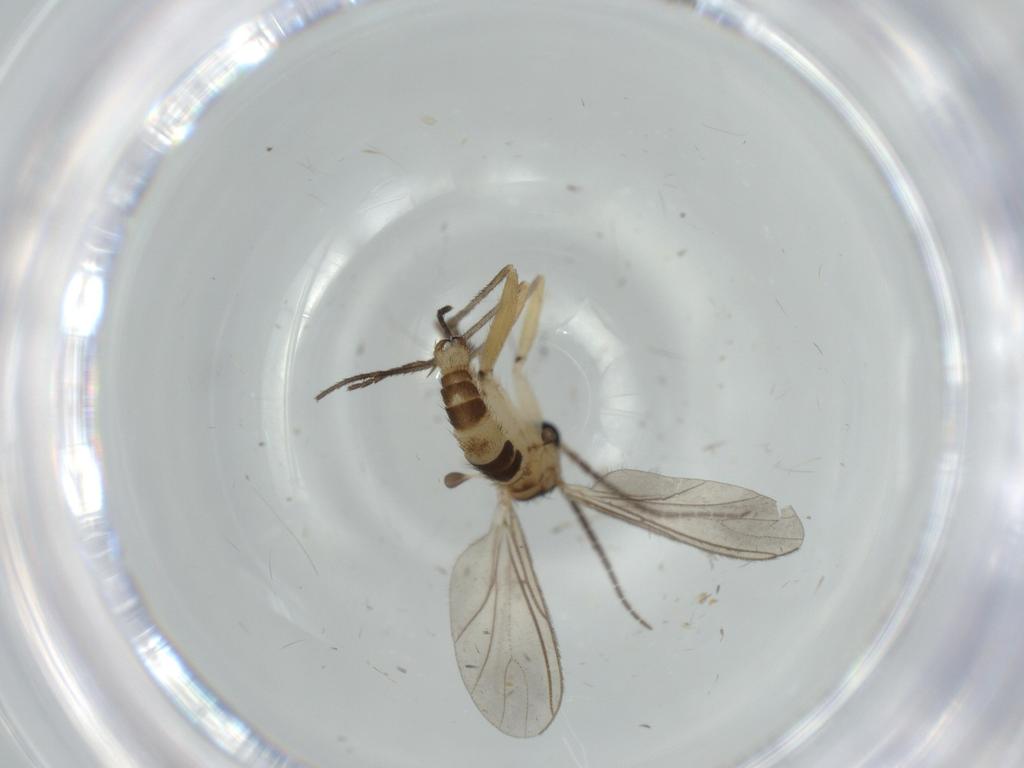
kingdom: Animalia
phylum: Arthropoda
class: Insecta
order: Diptera
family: Sciaridae
